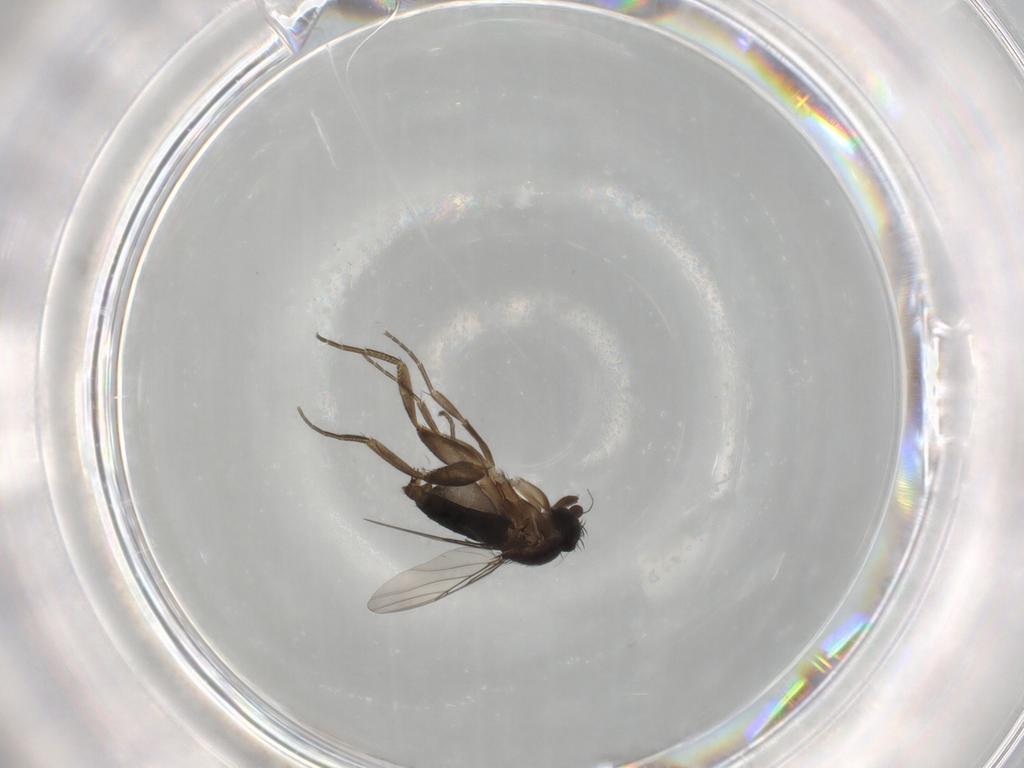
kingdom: Animalia
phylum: Arthropoda
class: Insecta
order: Diptera
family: Phoridae
